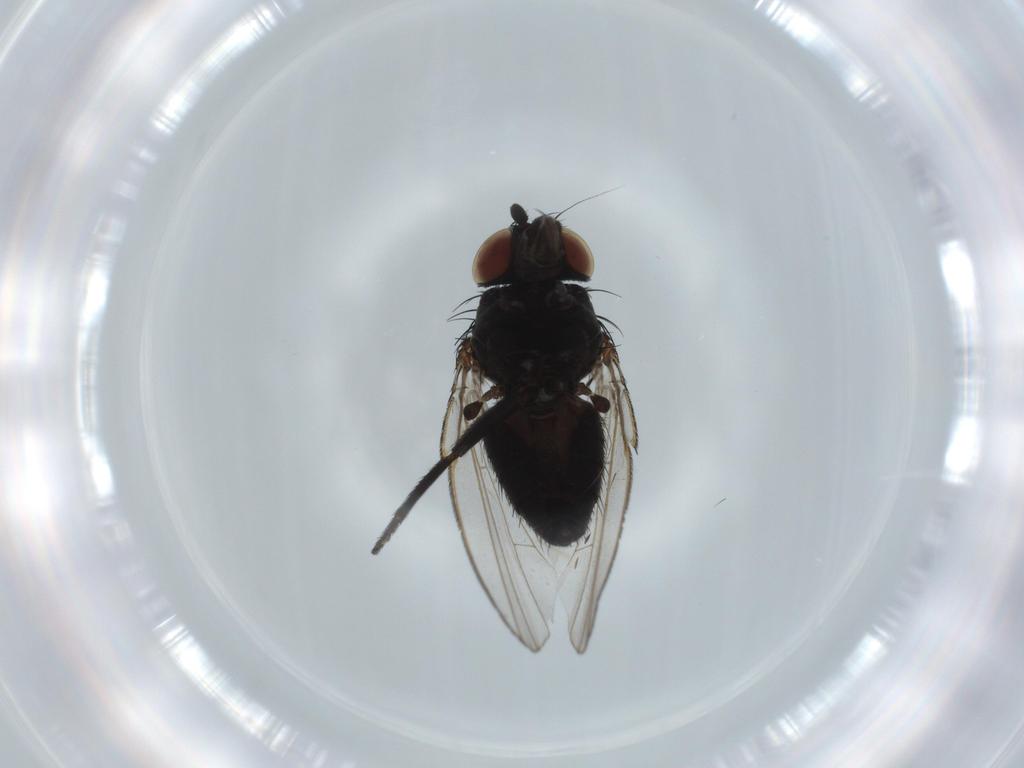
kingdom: Animalia
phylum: Arthropoda
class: Insecta
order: Diptera
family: Milichiidae
